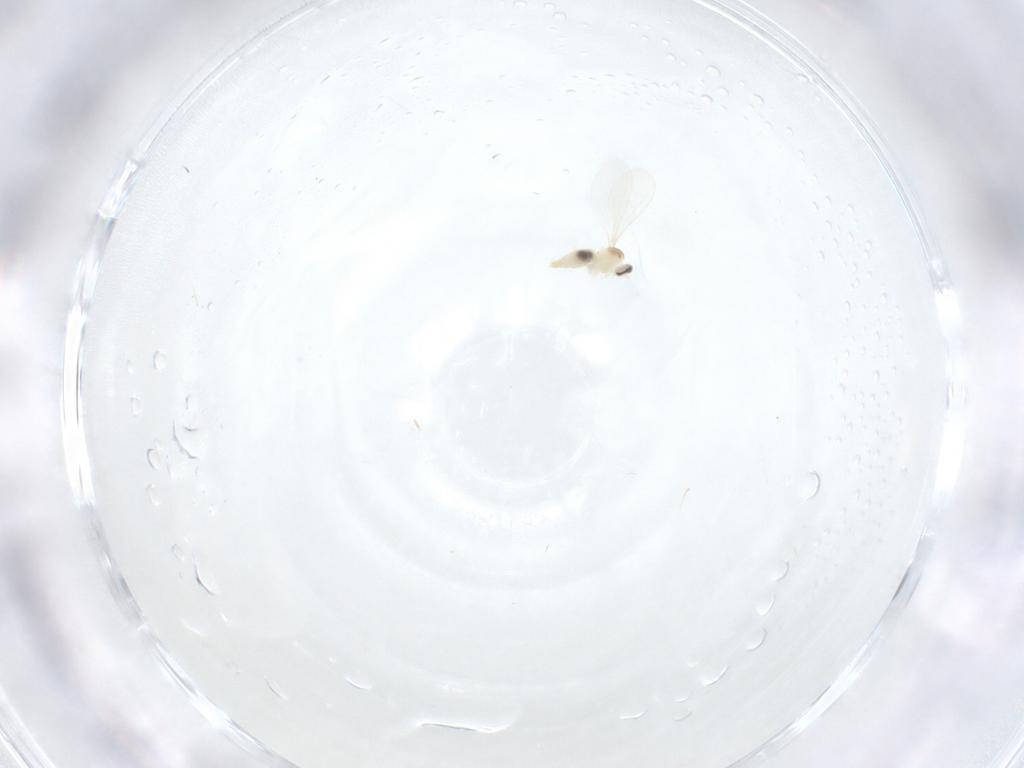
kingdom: Animalia
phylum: Arthropoda
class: Insecta
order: Diptera
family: Cecidomyiidae
